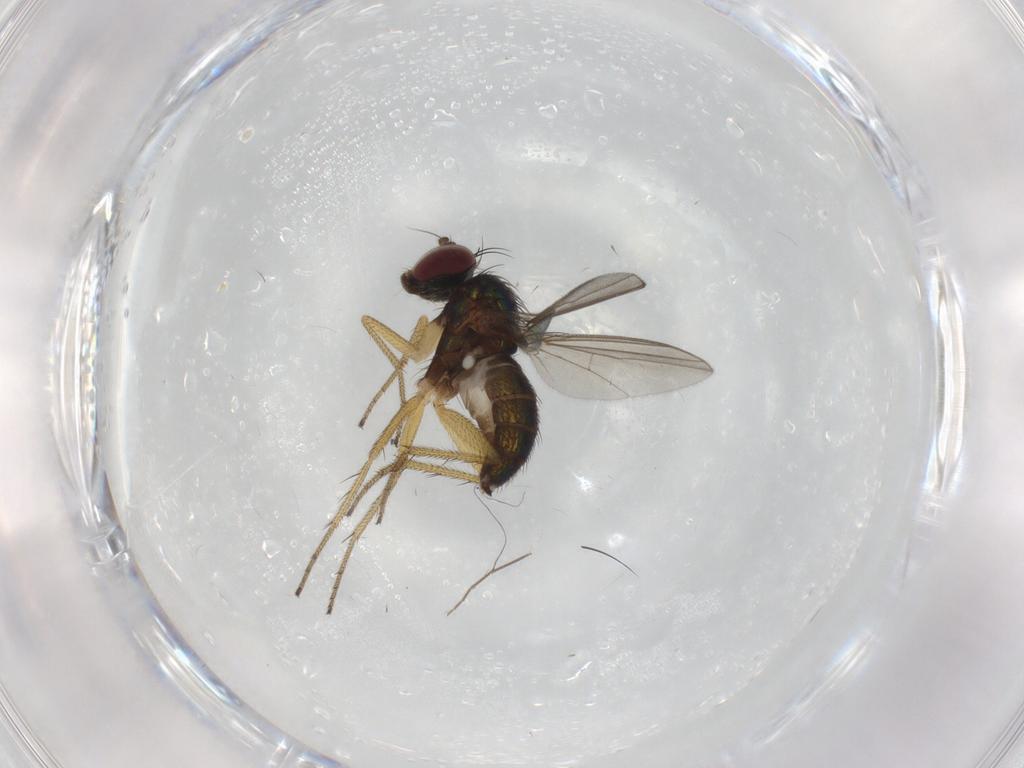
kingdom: Animalia
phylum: Arthropoda
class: Insecta
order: Diptera
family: Dolichopodidae
